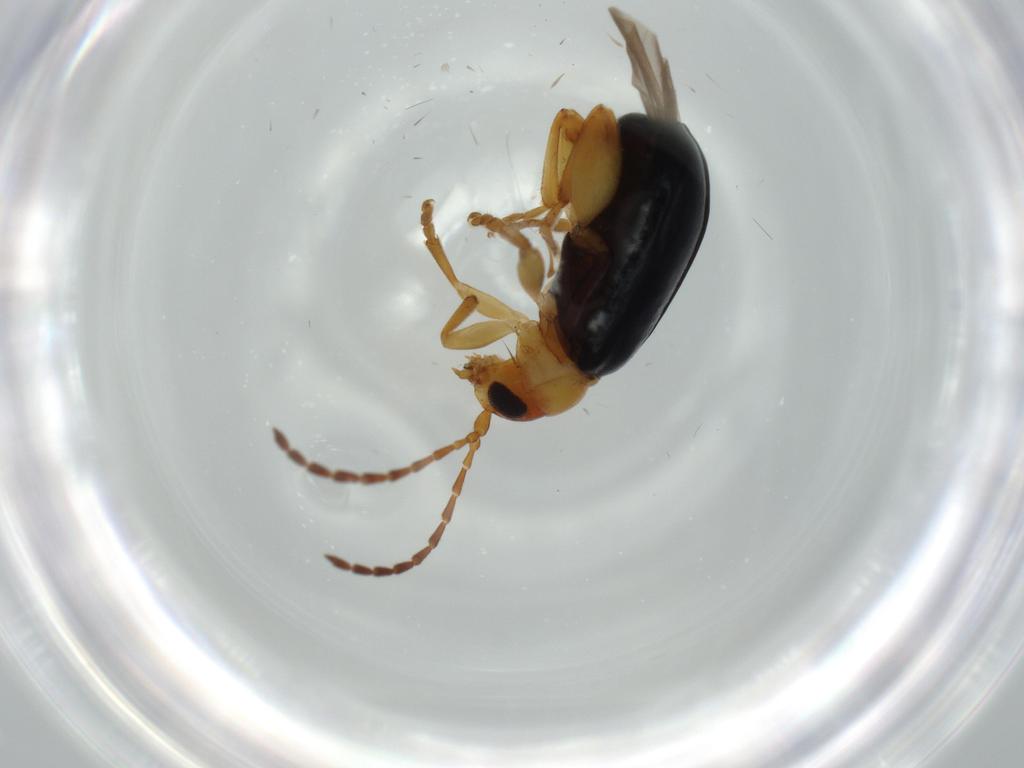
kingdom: Animalia
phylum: Arthropoda
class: Insecta
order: Coleoptera
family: Chrysomelidae
